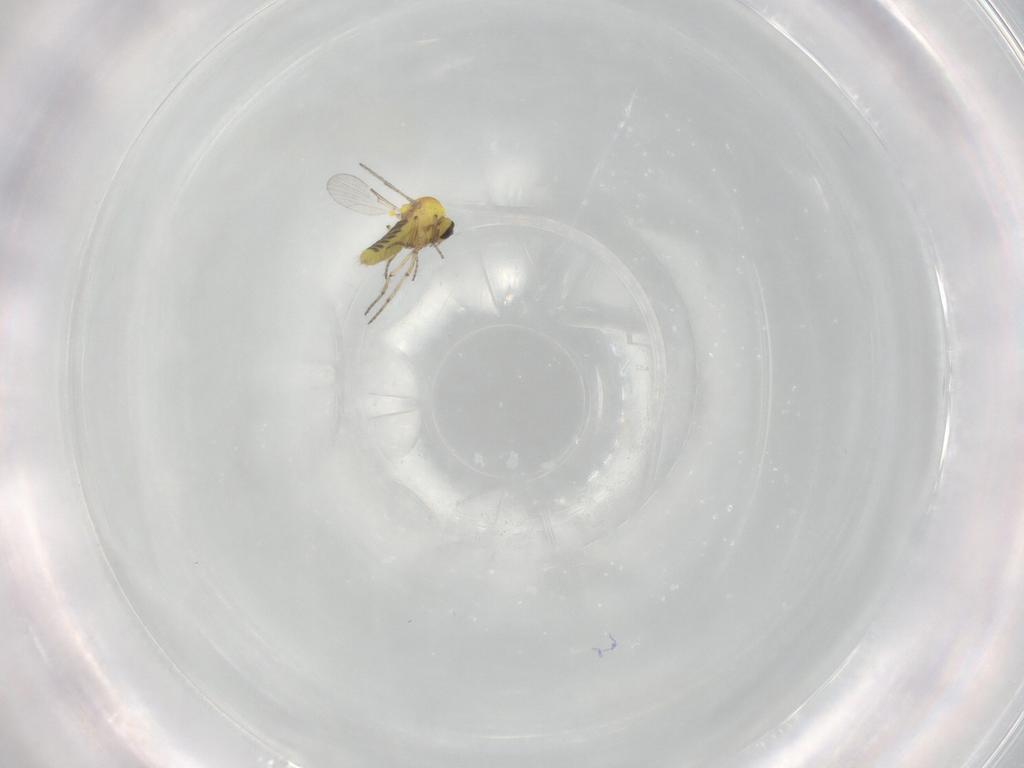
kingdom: Animalia
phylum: Arthropoda
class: Insecta
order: Diptera
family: Ceratopogonidae
